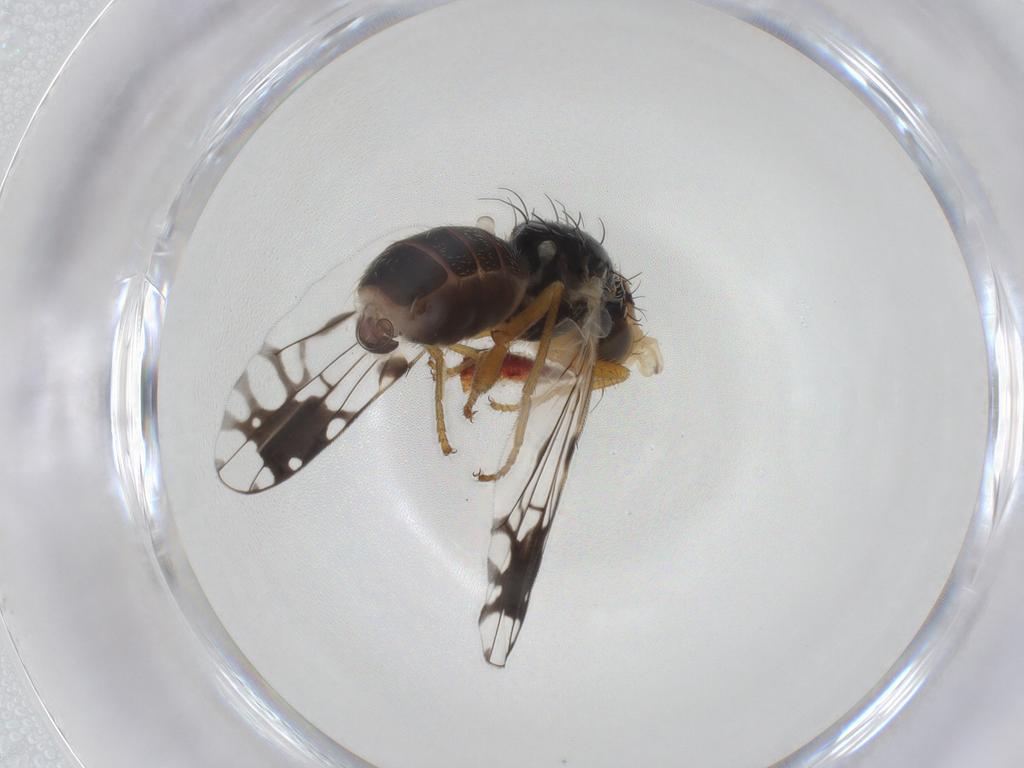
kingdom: Animalia
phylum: Arthropoda
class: Insecta
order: Diptera
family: Tephritidae
